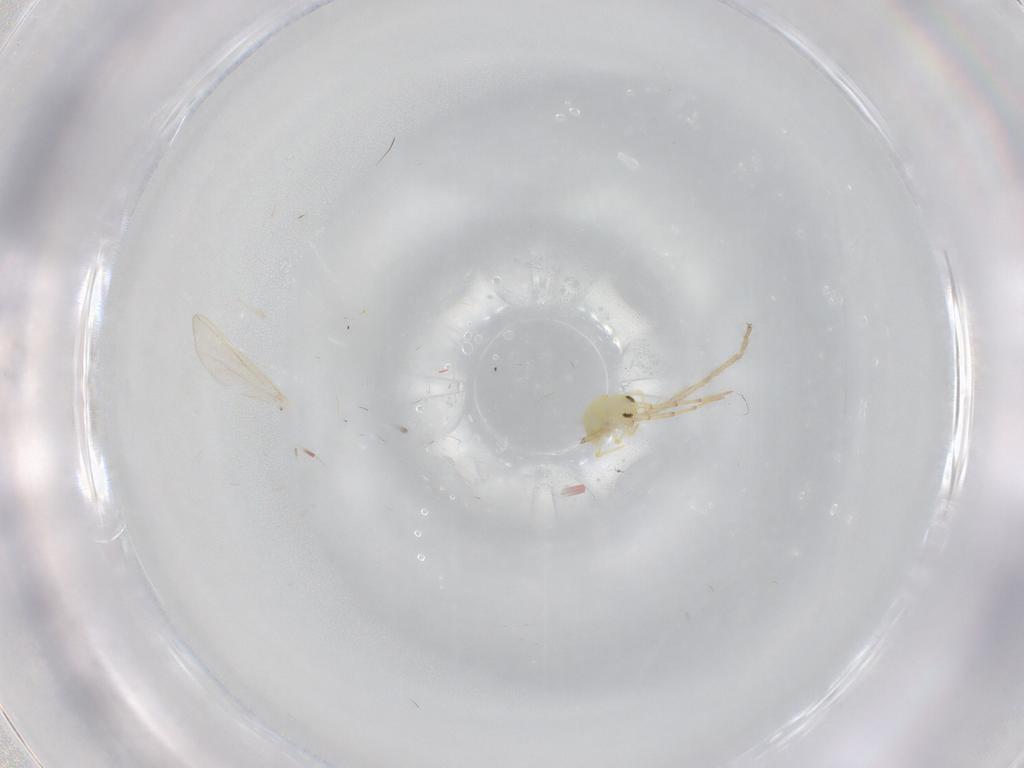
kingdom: Animalia
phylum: Arthropoda
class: Insecta
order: Diptera
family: Chironomidae
